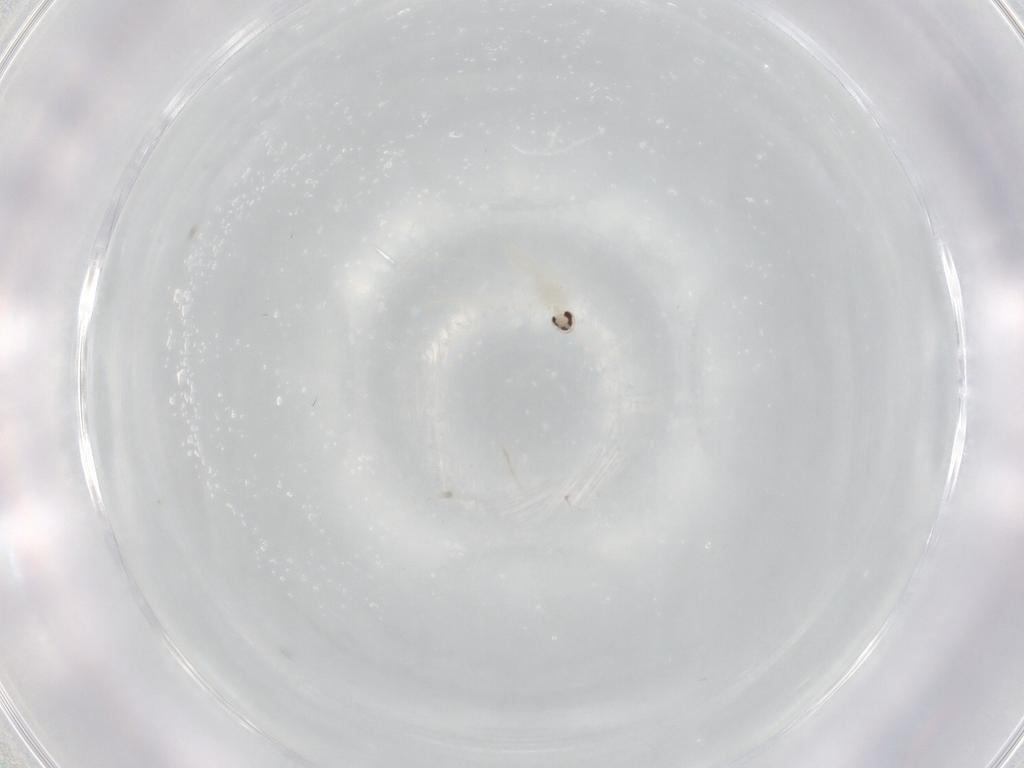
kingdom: Animalia
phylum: Arthropoda
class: Insecta
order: Diptera
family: Cecidomyiidae
